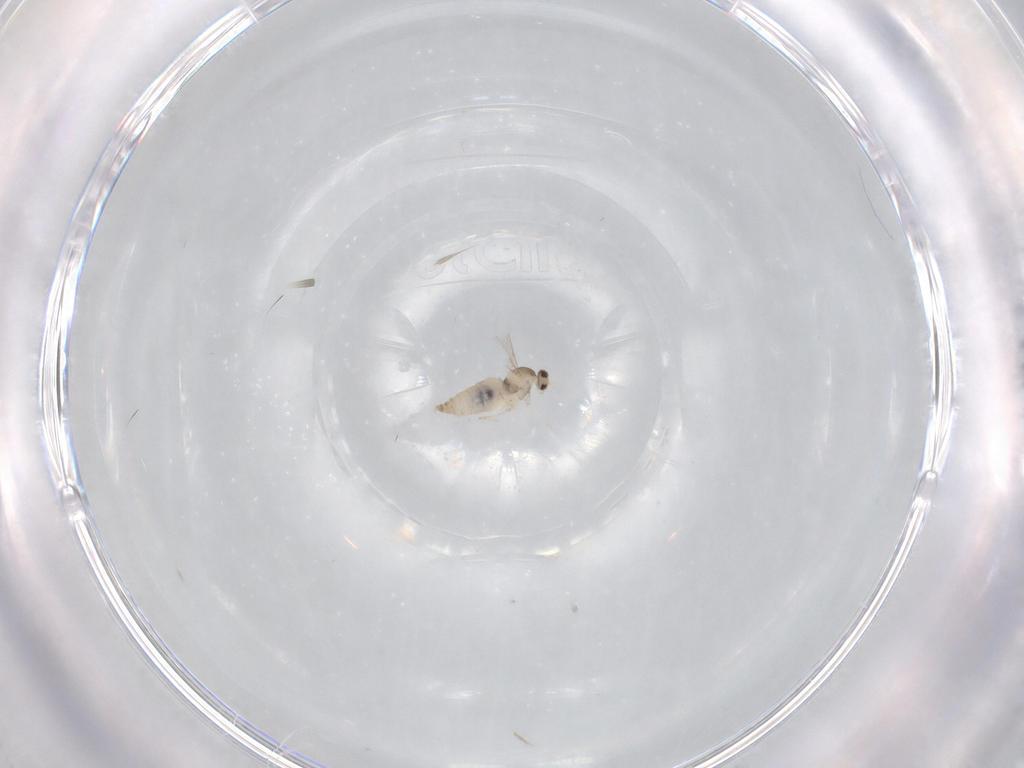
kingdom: Animalia
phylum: Arthropoda
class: Insecta
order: Diptera
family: Cecidomyiidae
